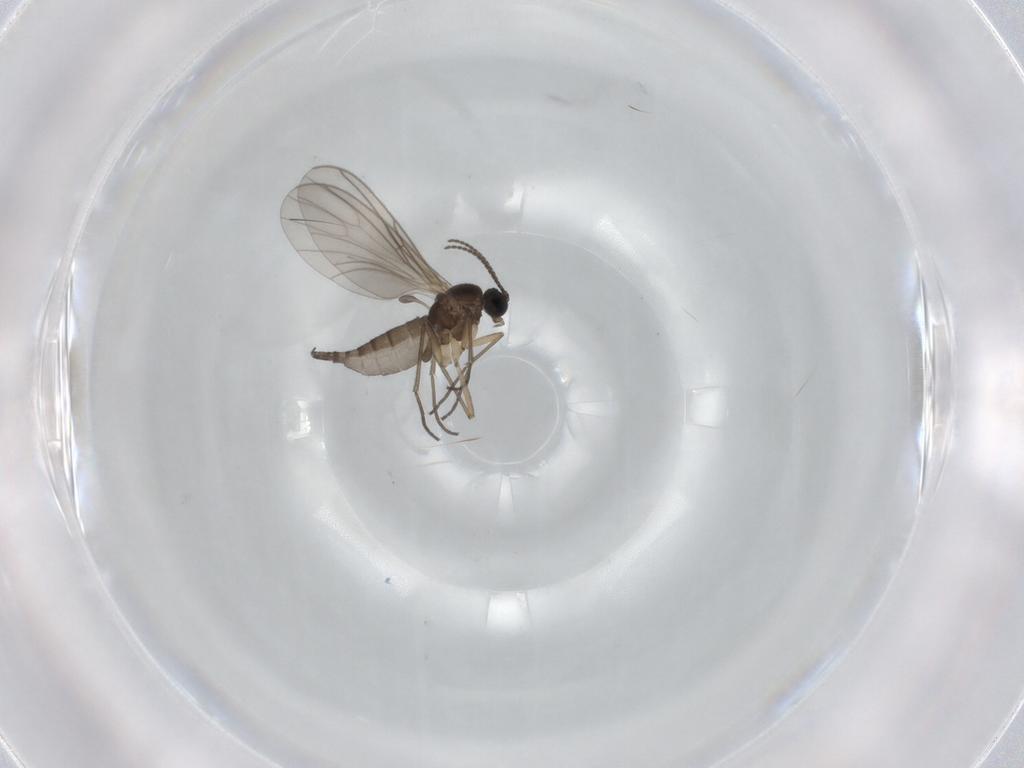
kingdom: Animalia
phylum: Arthropoda
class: Insecta
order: Diptera
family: Sciaridae
